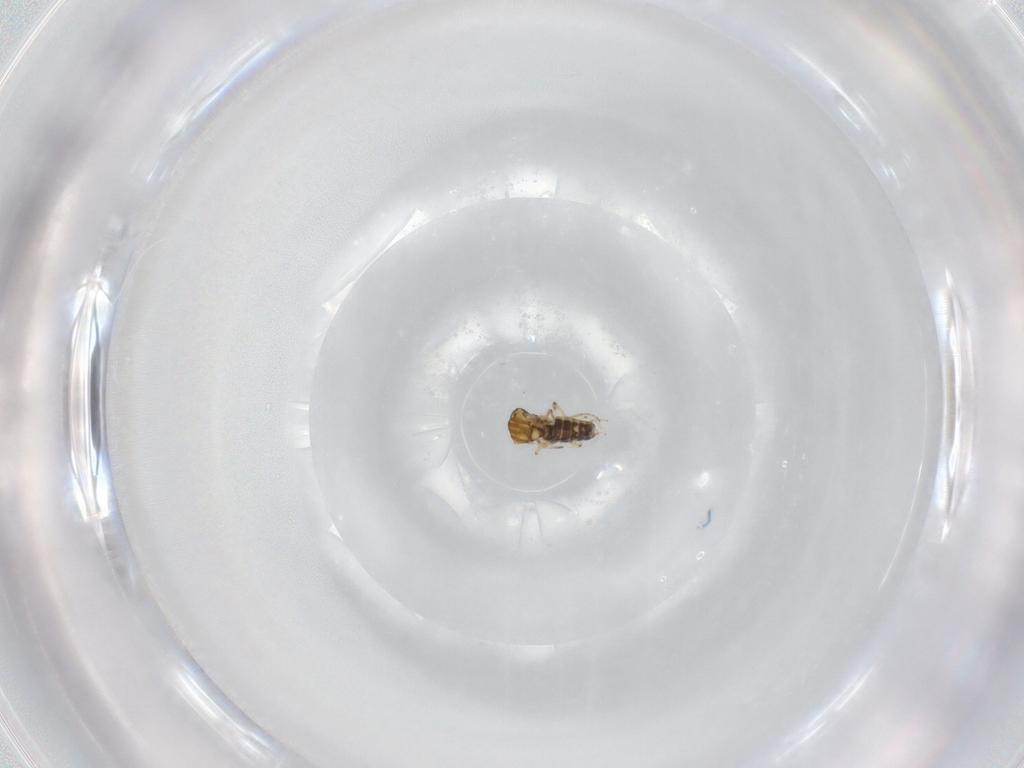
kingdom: Animalia
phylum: Arthropoda
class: Insecta
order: Diptera
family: Glossinidae
